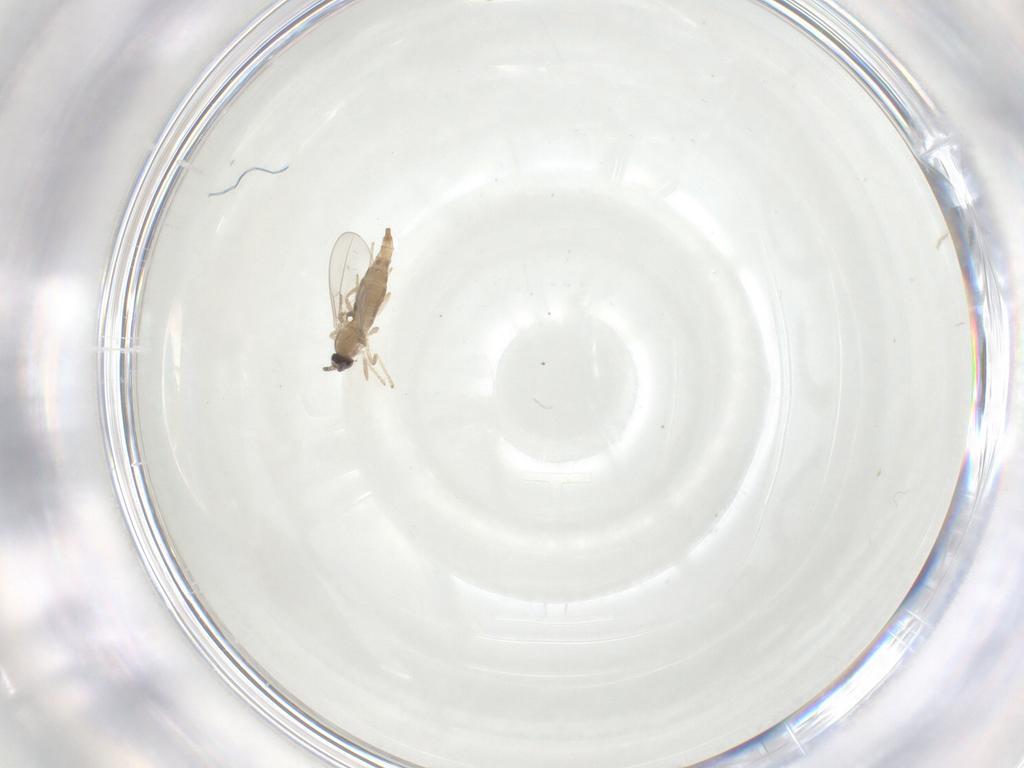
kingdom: Animalia
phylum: Arthropoda
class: Insecta
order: Diptera
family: Cecidomyiidae
